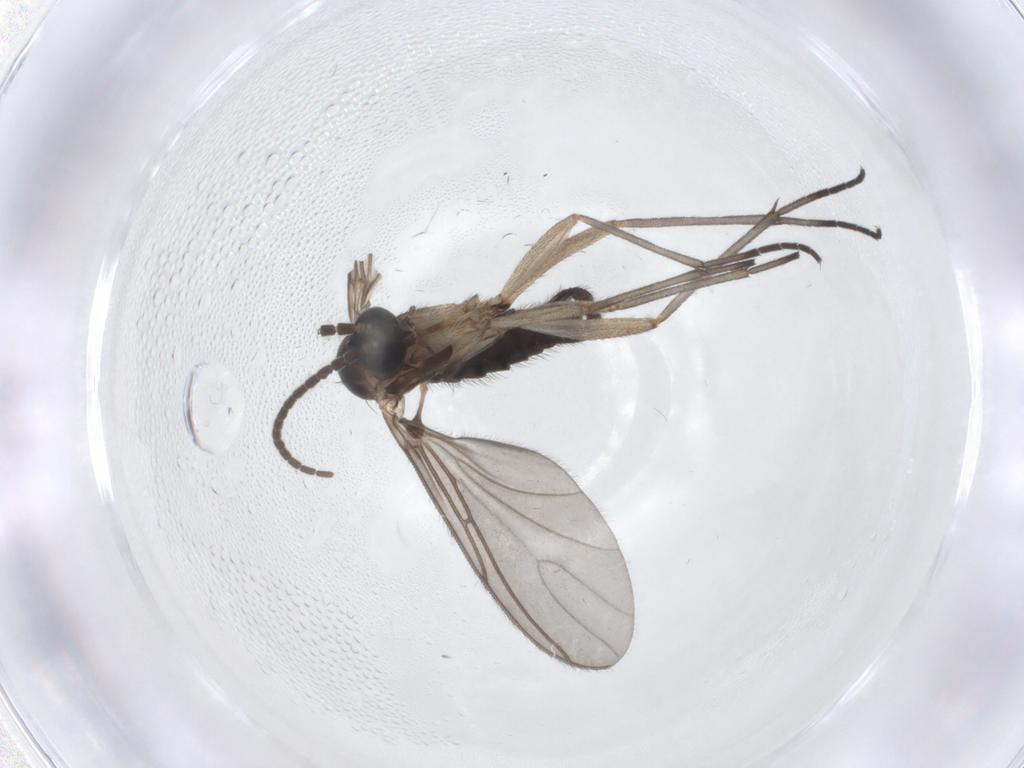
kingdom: Animalia
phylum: Arthropoda
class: Insecta
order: Diptera
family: Sciaridae
